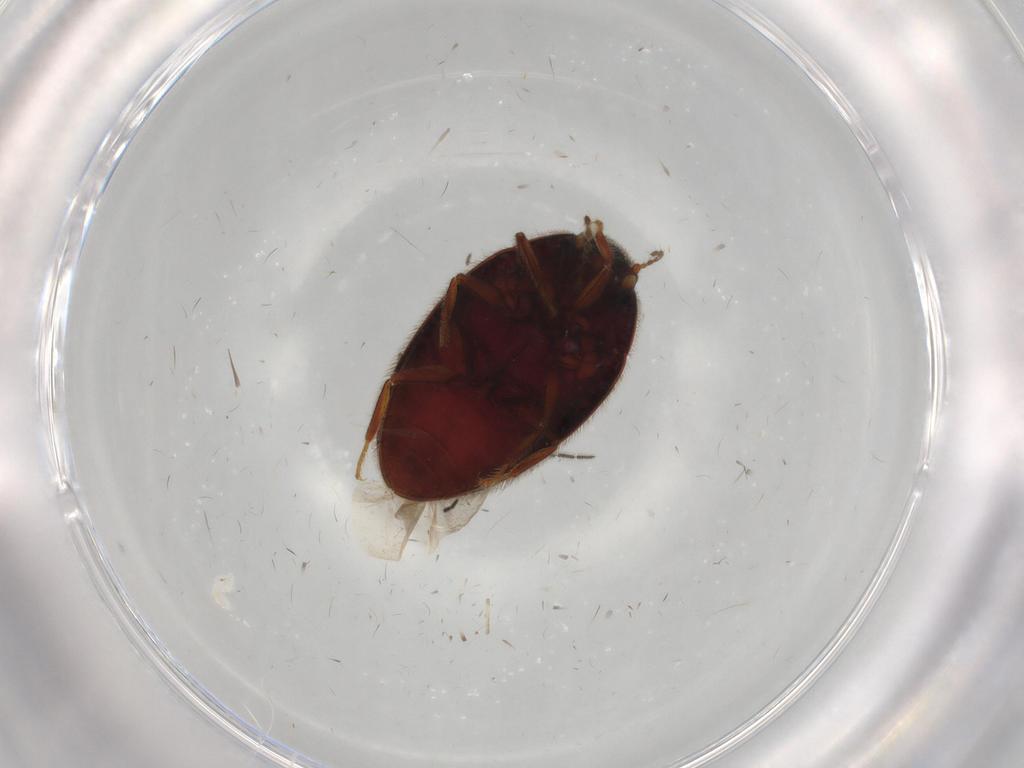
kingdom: Animalia
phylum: Arthropoda
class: Insecta
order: Coleoptera
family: Limnichidae
